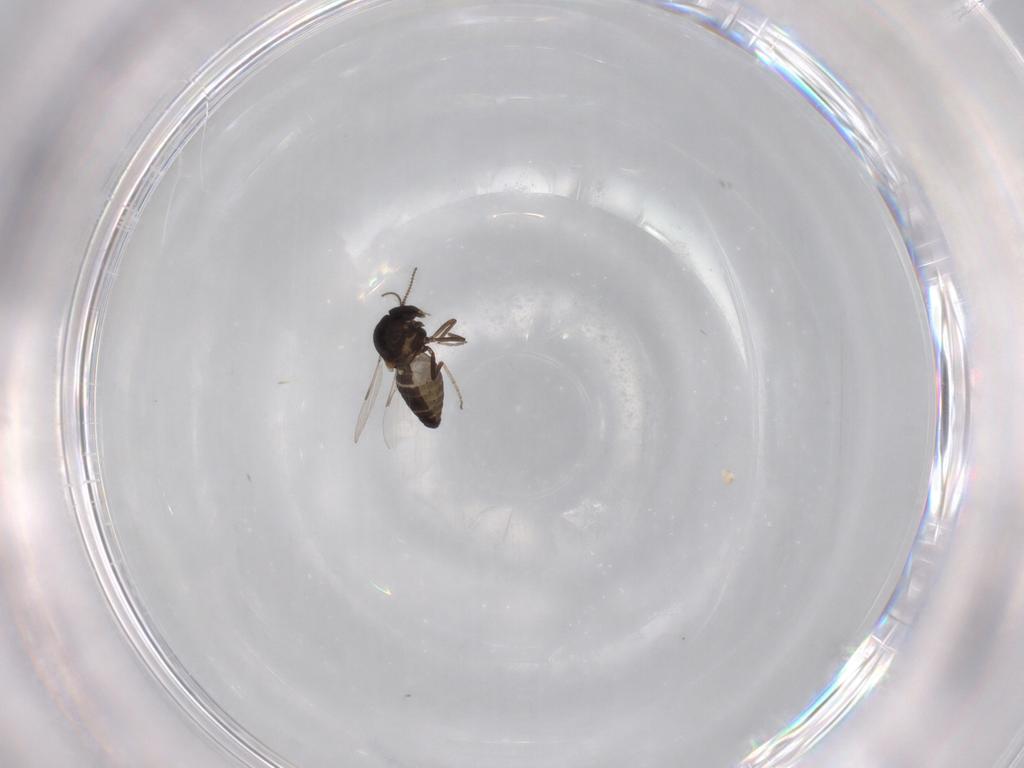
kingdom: Animalia
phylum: Arthropoda
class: Insecta
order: Diptera
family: Ceratopogonidae
